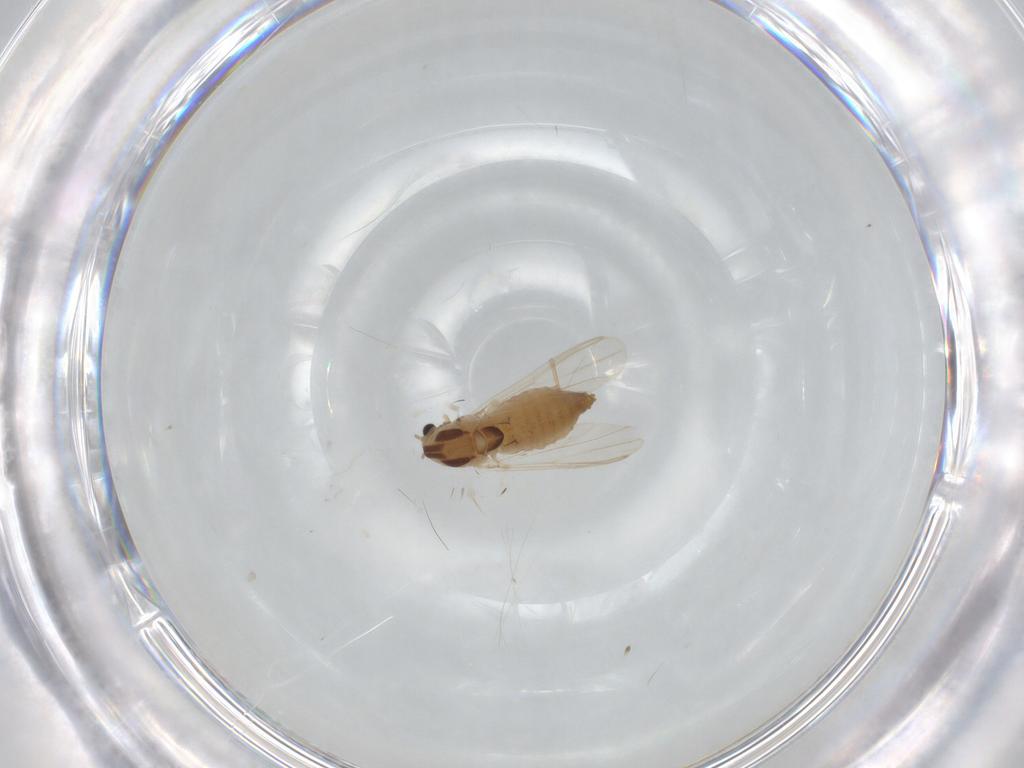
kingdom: Animalia
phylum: Arthropoda
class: Insecta
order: Diptera
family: Chironomidae
